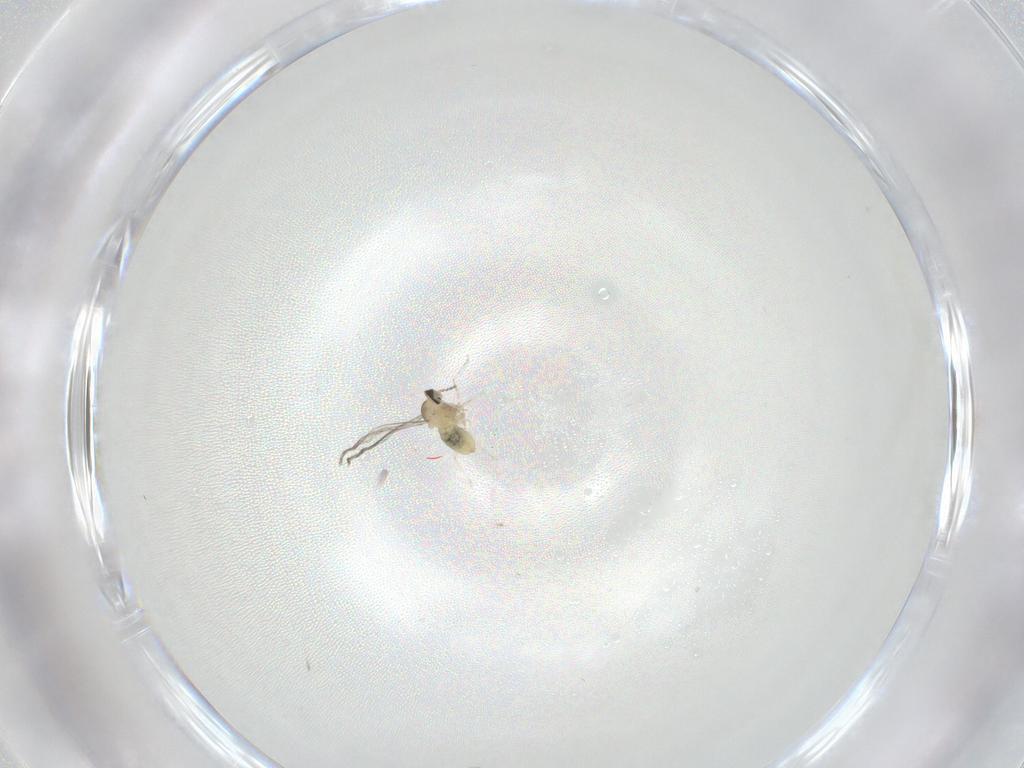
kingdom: Animalia
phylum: Arthropoda
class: Insecta
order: Diptera
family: Cecidomyiidae
